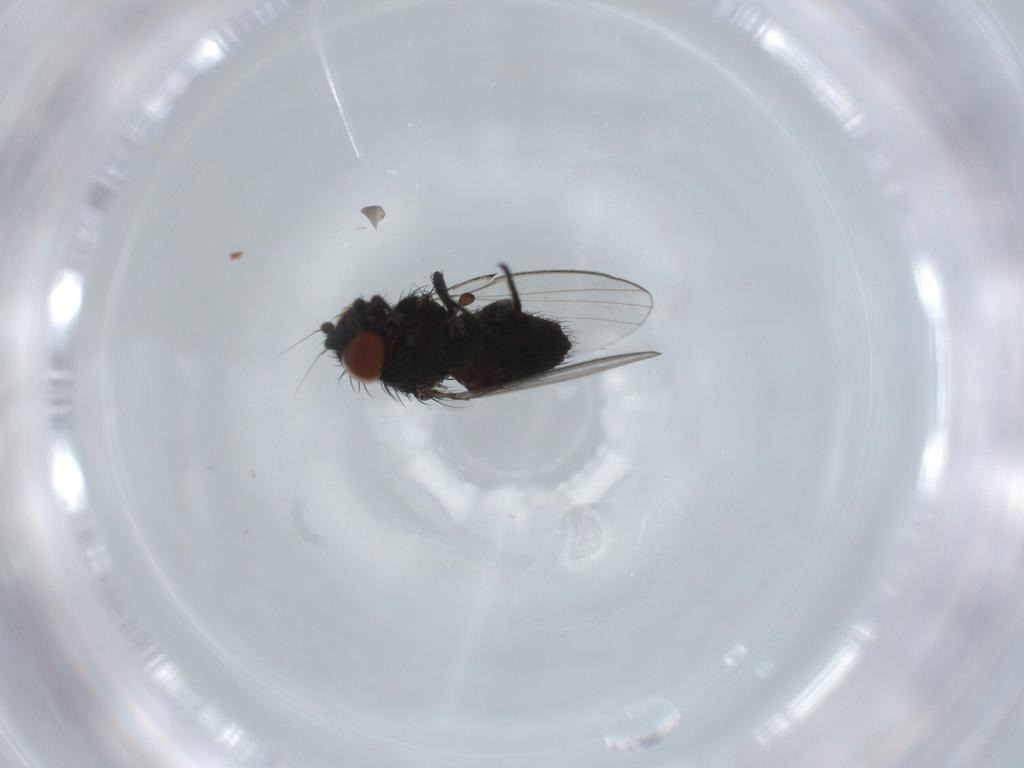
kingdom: Animalia
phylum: Arthropoda
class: Insecta
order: Diptera
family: Milichiidae
